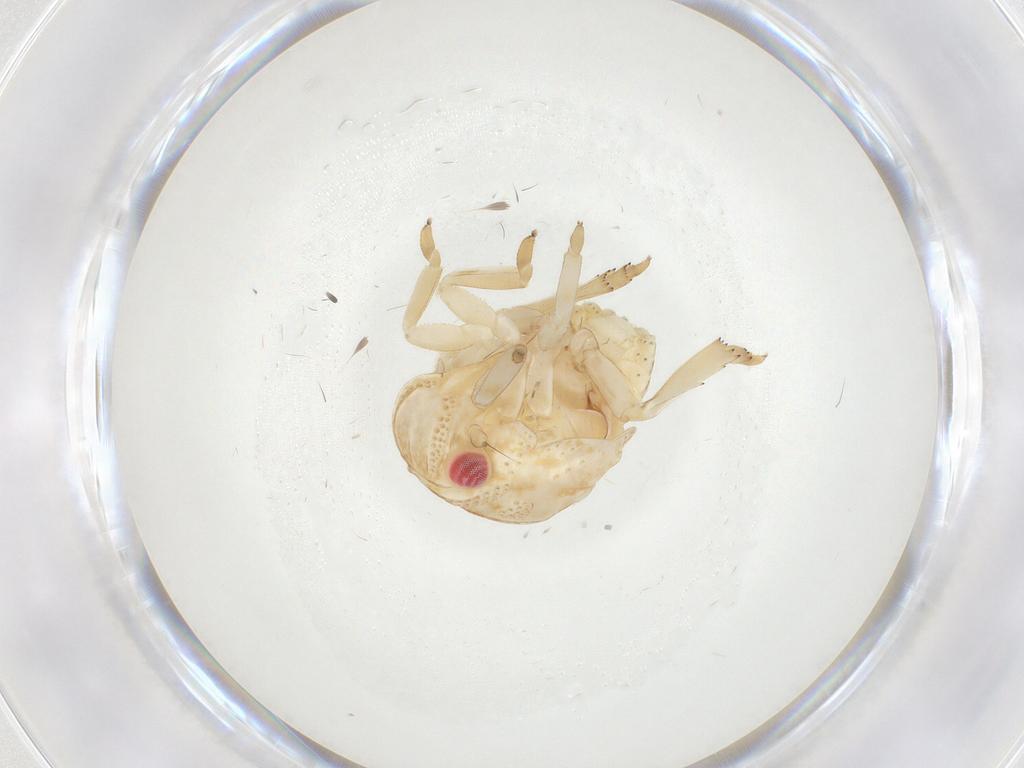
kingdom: Animalia
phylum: Arthropoda
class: Insecta
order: Hemiptera
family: Acanaloniidae
